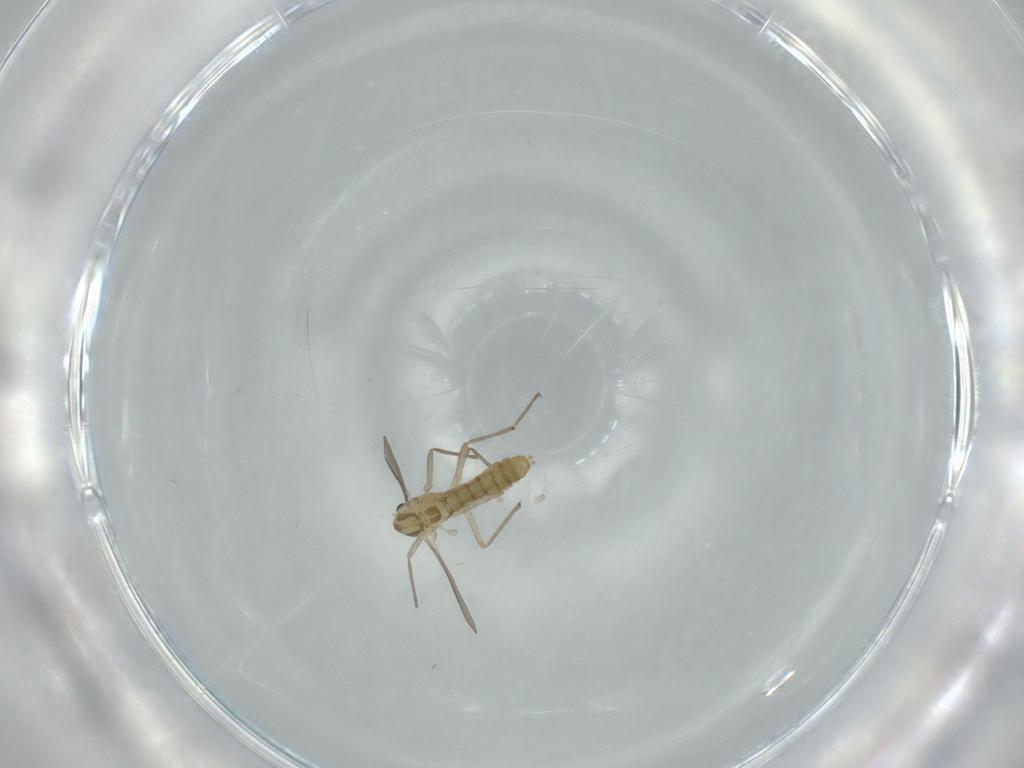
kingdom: Animalia
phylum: Arthropoda
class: Insecta
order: Diptera
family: Chironomidae
